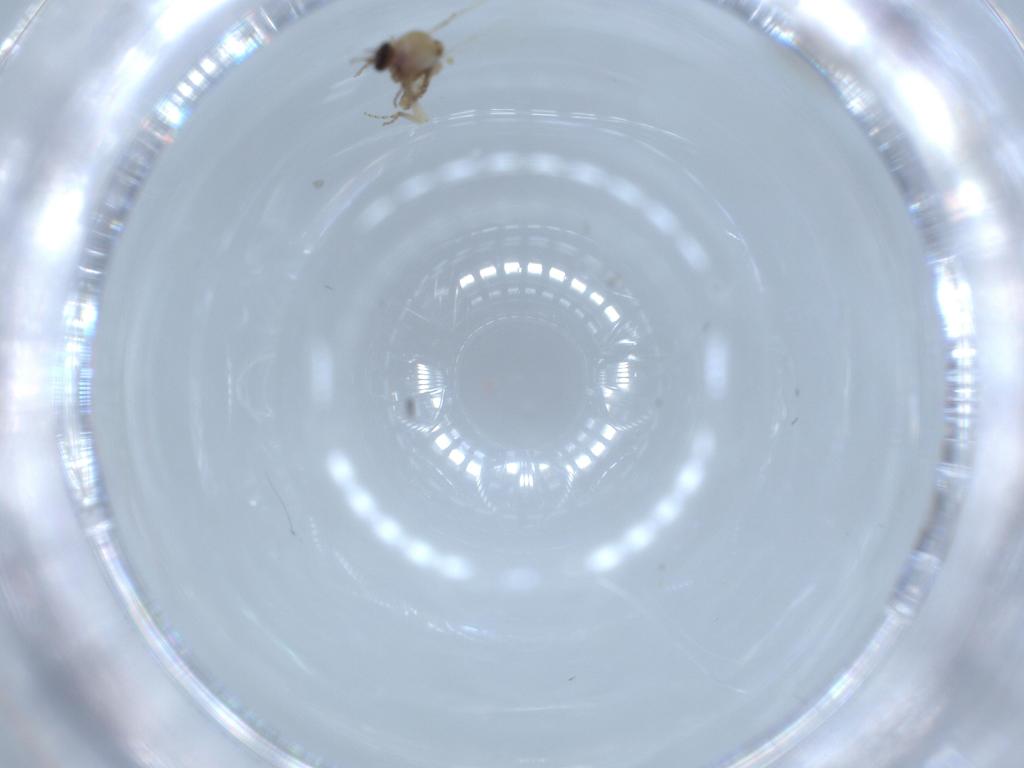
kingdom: Animalia
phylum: Arthropoda
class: Insecta
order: Diptera
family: Ceratopogonidae
